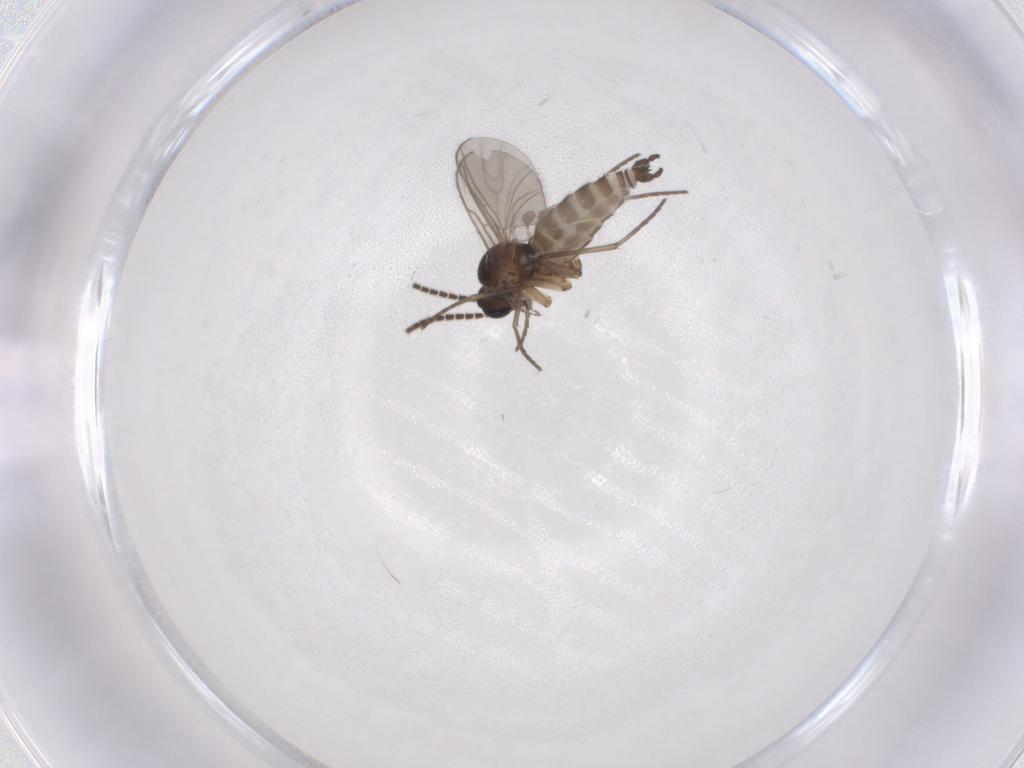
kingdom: Animalia
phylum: Arthropoda
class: Insecta
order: Diptera
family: Sciaridae
